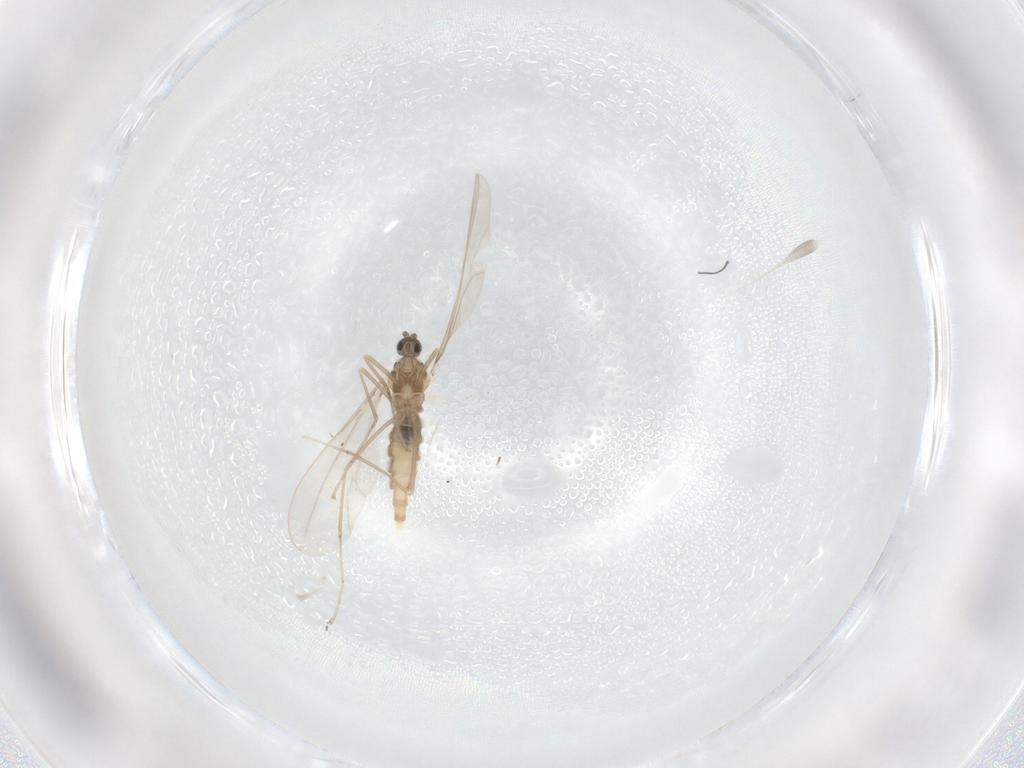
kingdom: Animalia
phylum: Arthropoda
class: Insecta
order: Diptera
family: Cecidomyiidae
